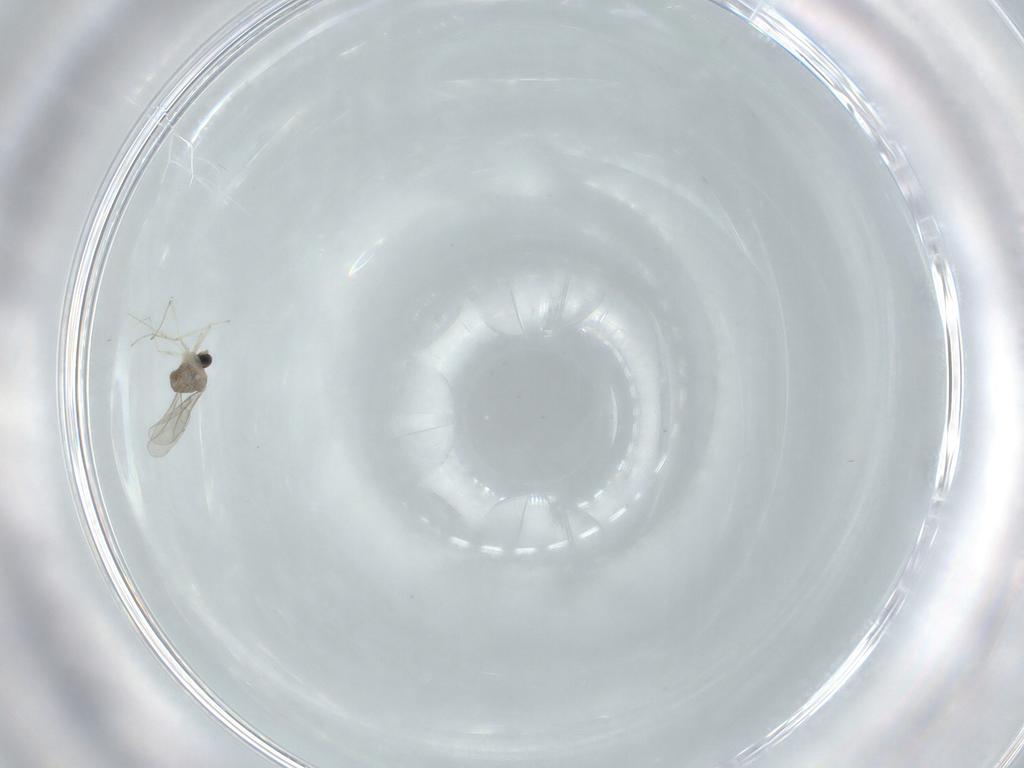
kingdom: Animalia
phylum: Arthropoda
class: Insecta
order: Diptera
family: Cecidomyiidae
